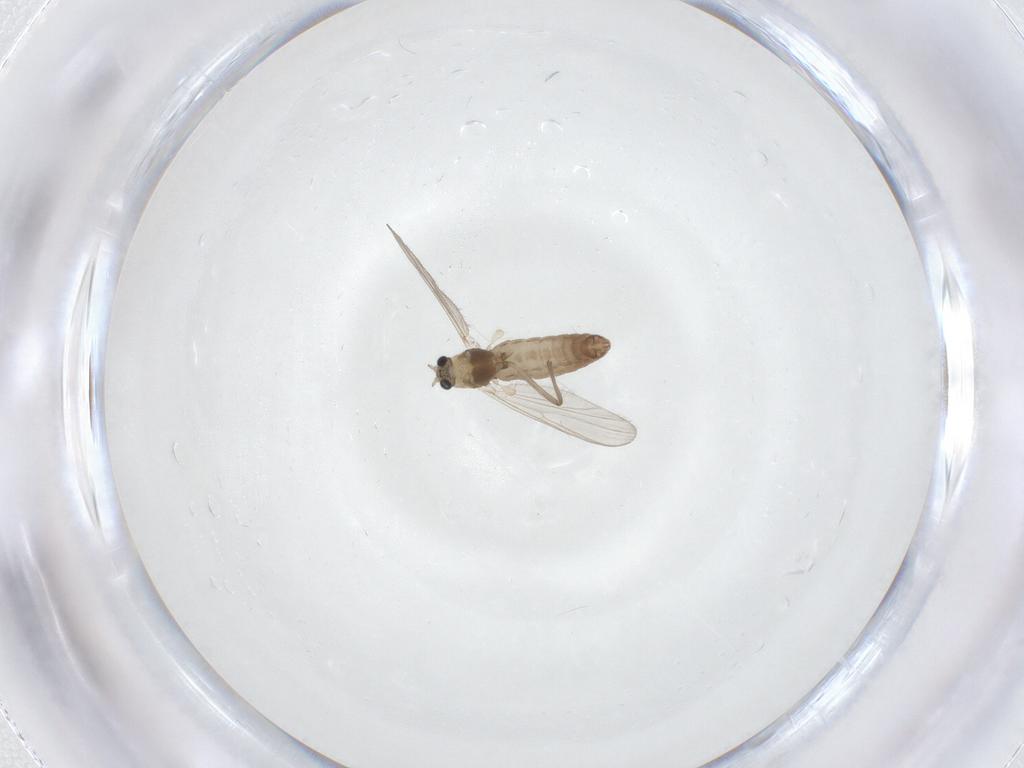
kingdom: Animalia
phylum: Arthropoda
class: Insecta
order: Diptera
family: Chironomidae
